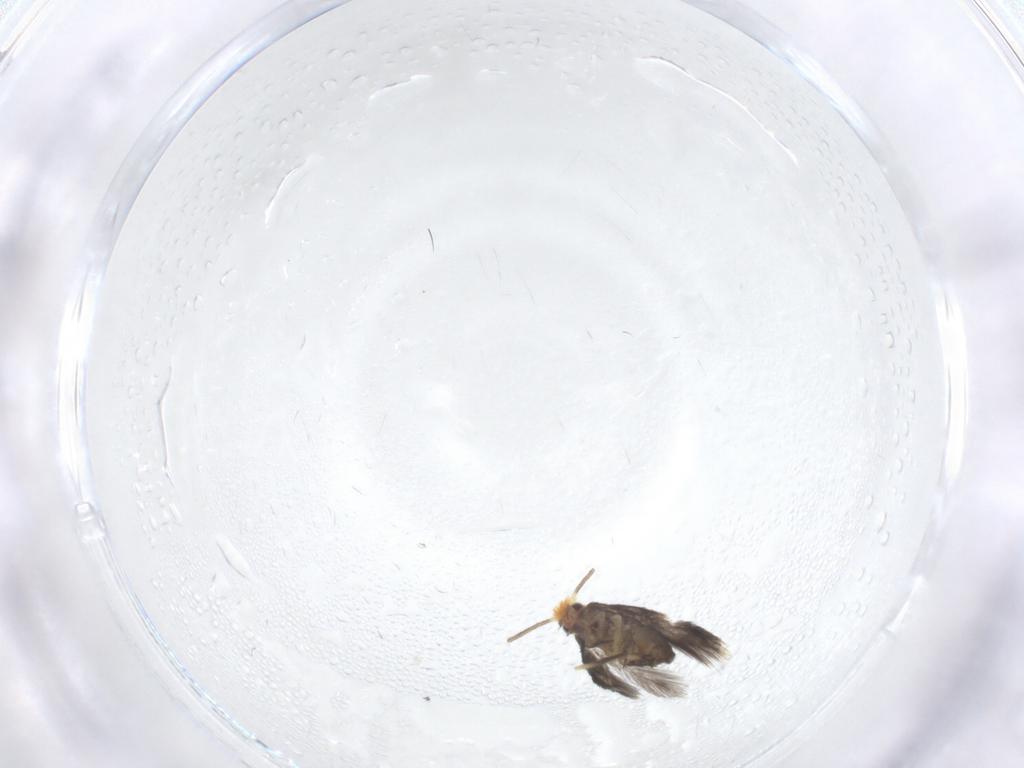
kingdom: Animalia
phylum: Arthropoda
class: Insecta
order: Lepidoptera
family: Nepticulidae
